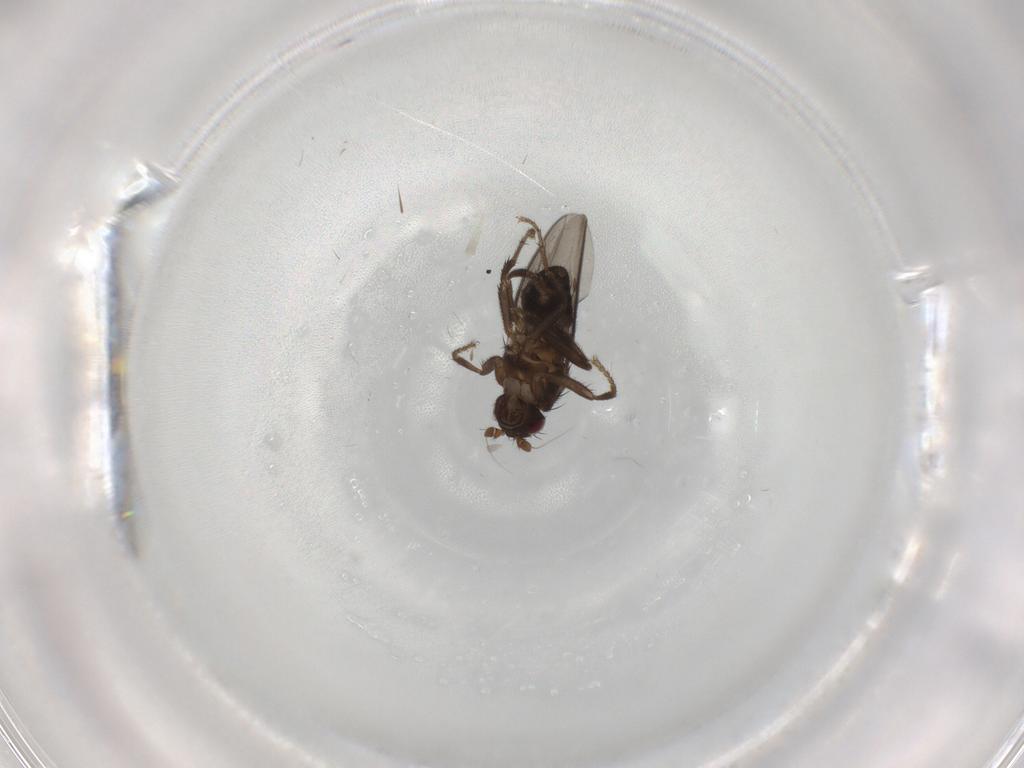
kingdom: Animalia
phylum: Arthropoda
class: Insecta
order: Diptera
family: Sphaeroceridae
